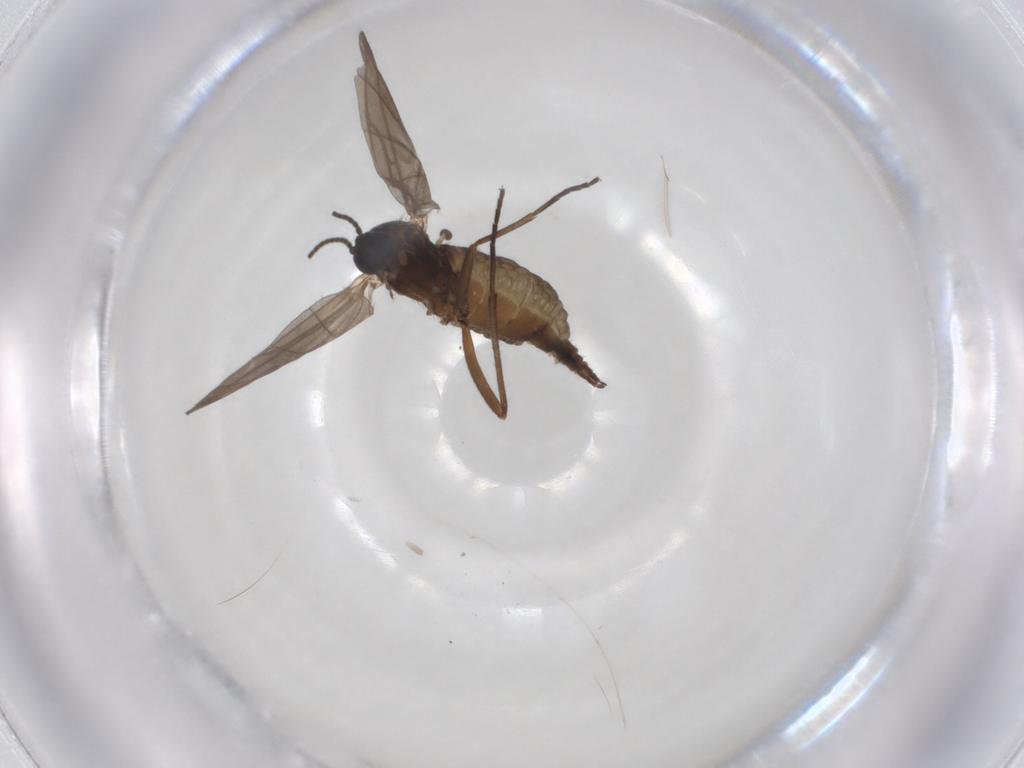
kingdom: Animalia
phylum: Arthropoda
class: Insecta
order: Diptera
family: Sciaridae
